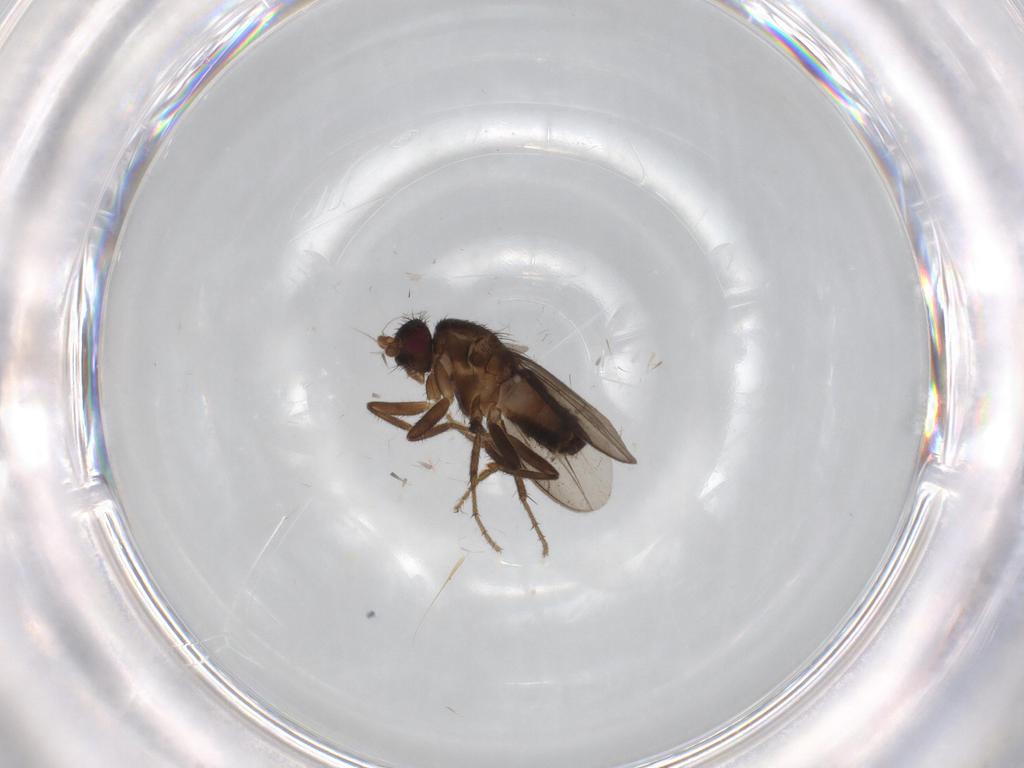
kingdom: Animalia
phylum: Arthropoda
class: Insecta
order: Diptera
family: Sphaeroceridae
